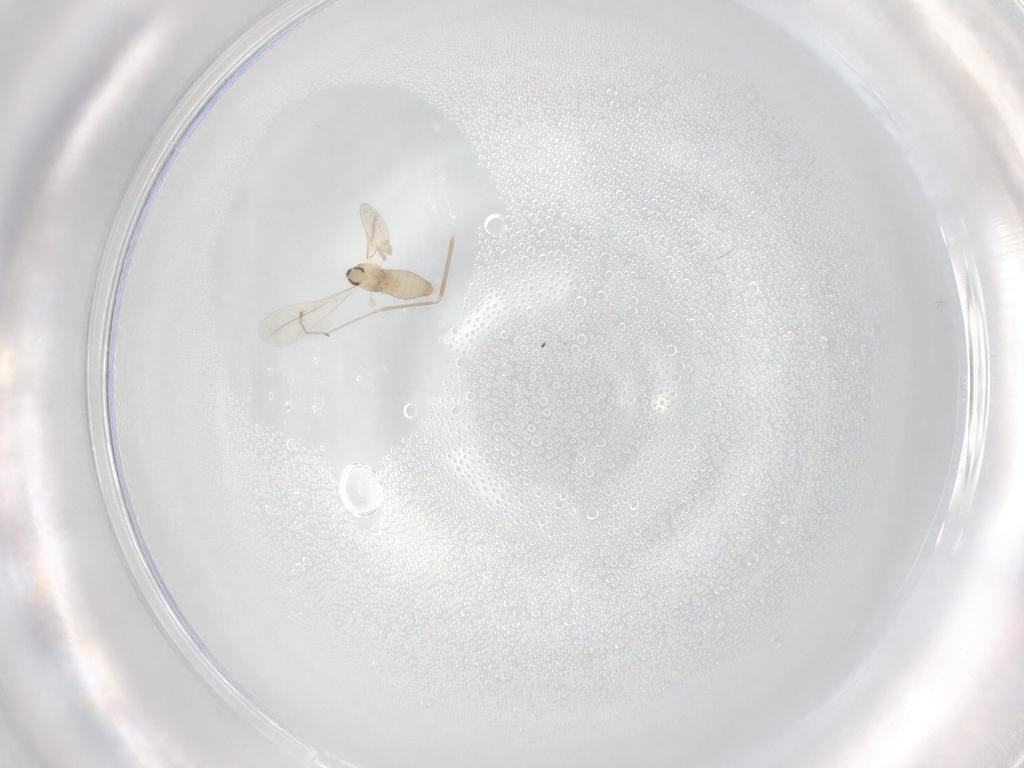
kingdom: Animalia
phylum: Arthropoda
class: Insecta
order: Diptera
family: Cecidomyiidae
